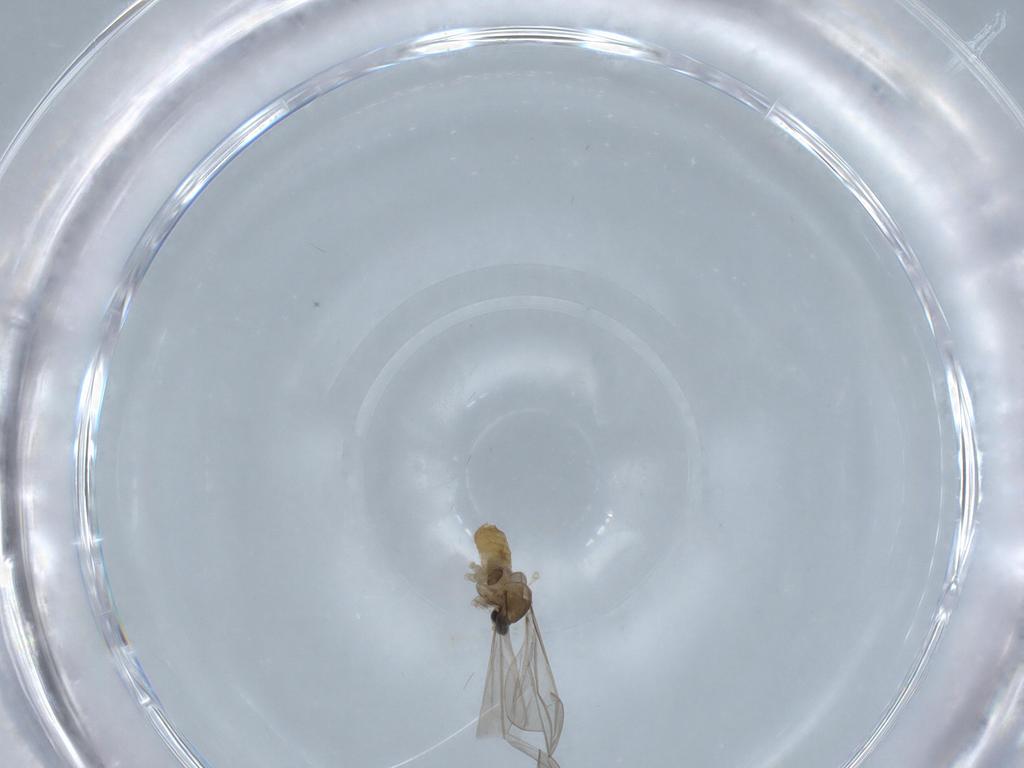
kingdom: Animalia
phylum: Arthropoda
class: Insecta
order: Diptera
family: Cecidomyiidae
